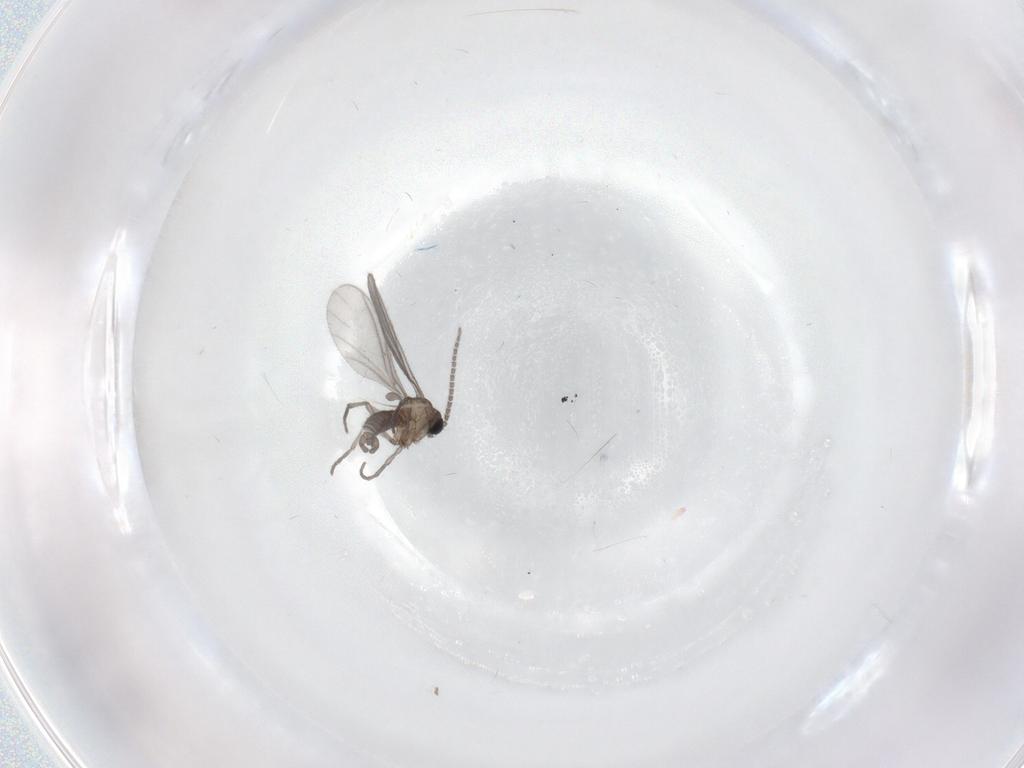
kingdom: Animalia
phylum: Arthropoda
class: Insecta
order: Diptera
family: Sciaridae
